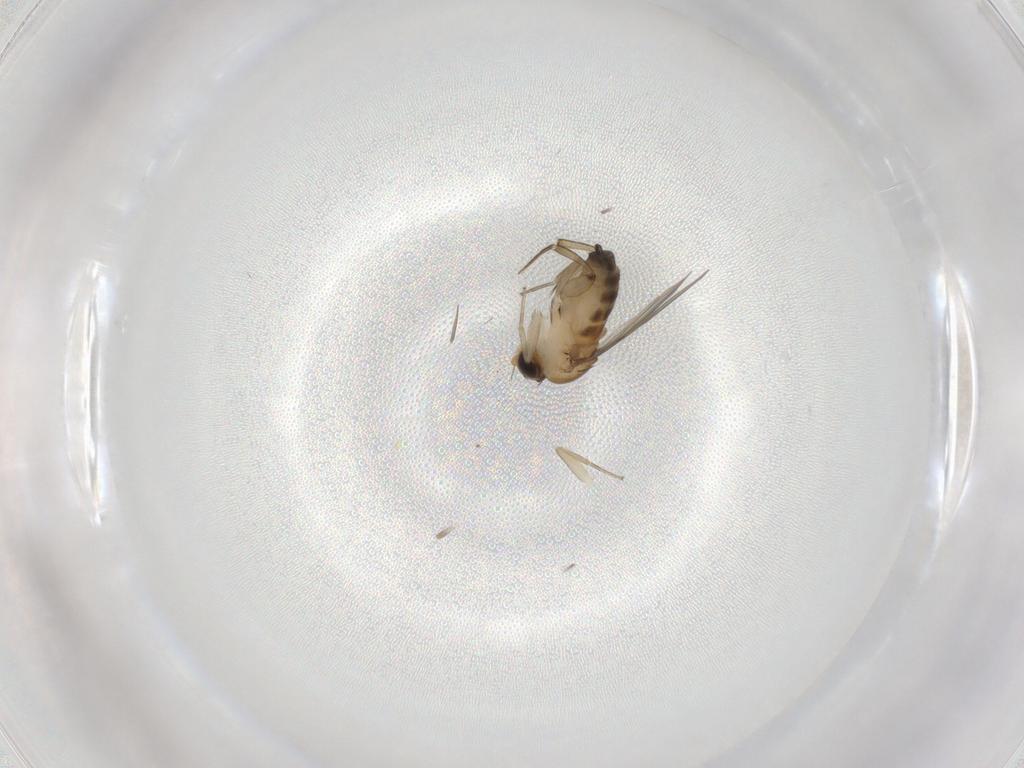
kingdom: Animalia
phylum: Arthropoda
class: Insecta
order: Diptera
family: Phoridae
